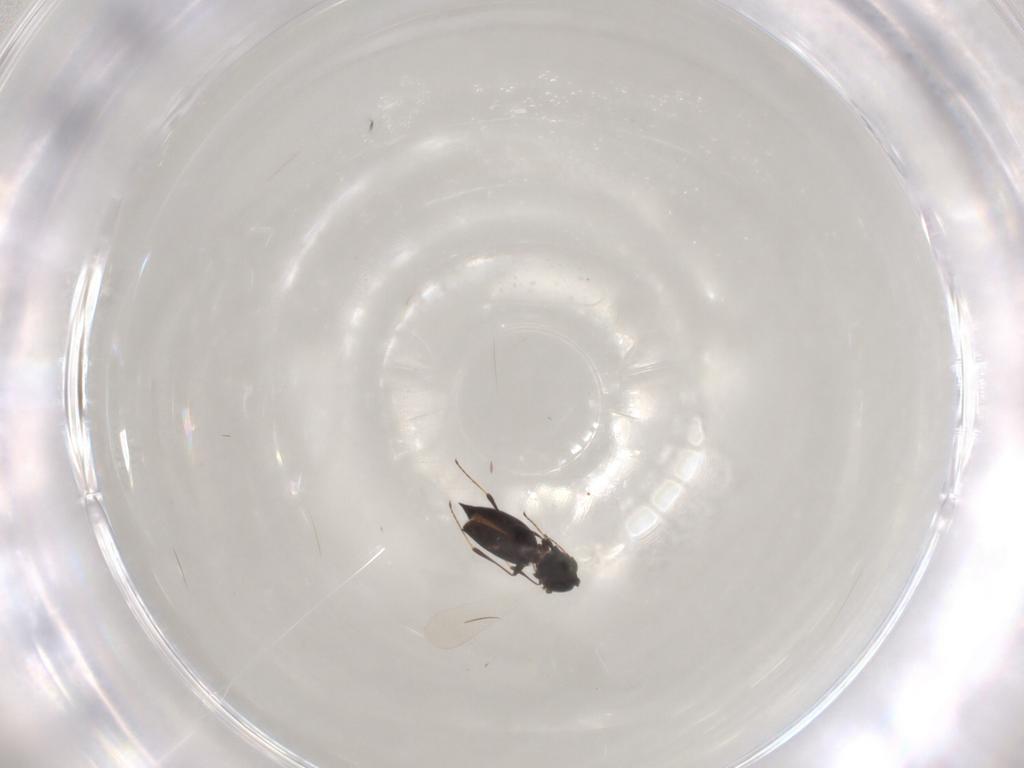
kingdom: Animalia
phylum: Arthropoda
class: Insecta
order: Hymenoptera
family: Platygastridae
